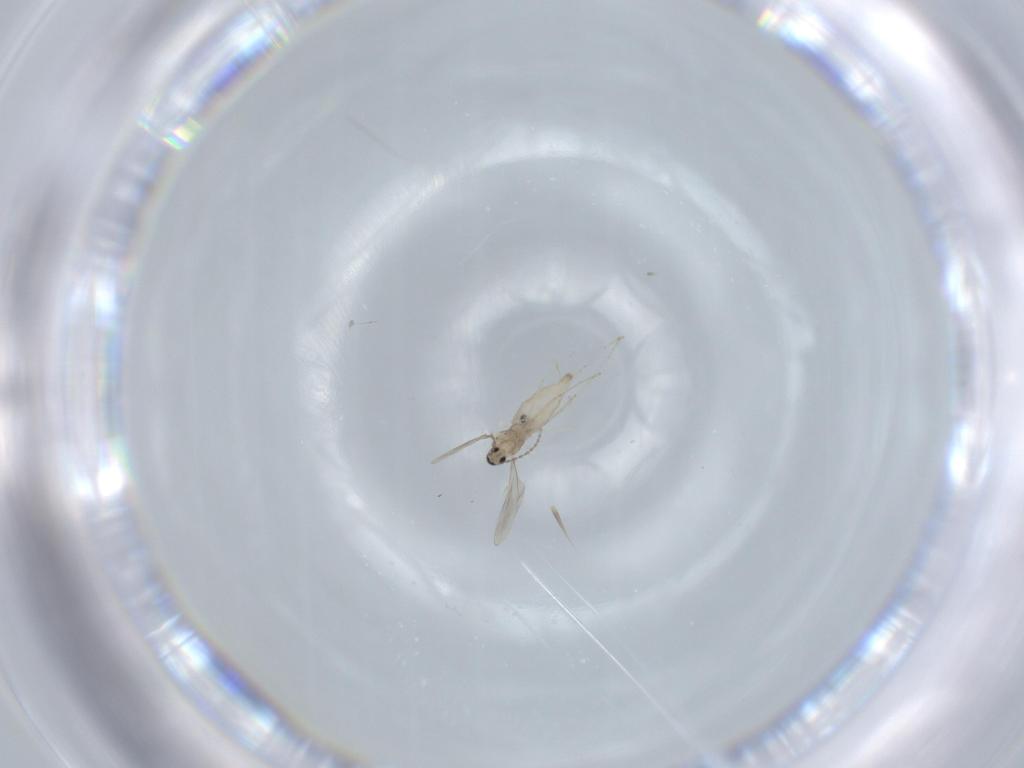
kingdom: Animalia
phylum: Arthropoda
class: Insecta
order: Diptera
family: Cecidomyiidae
